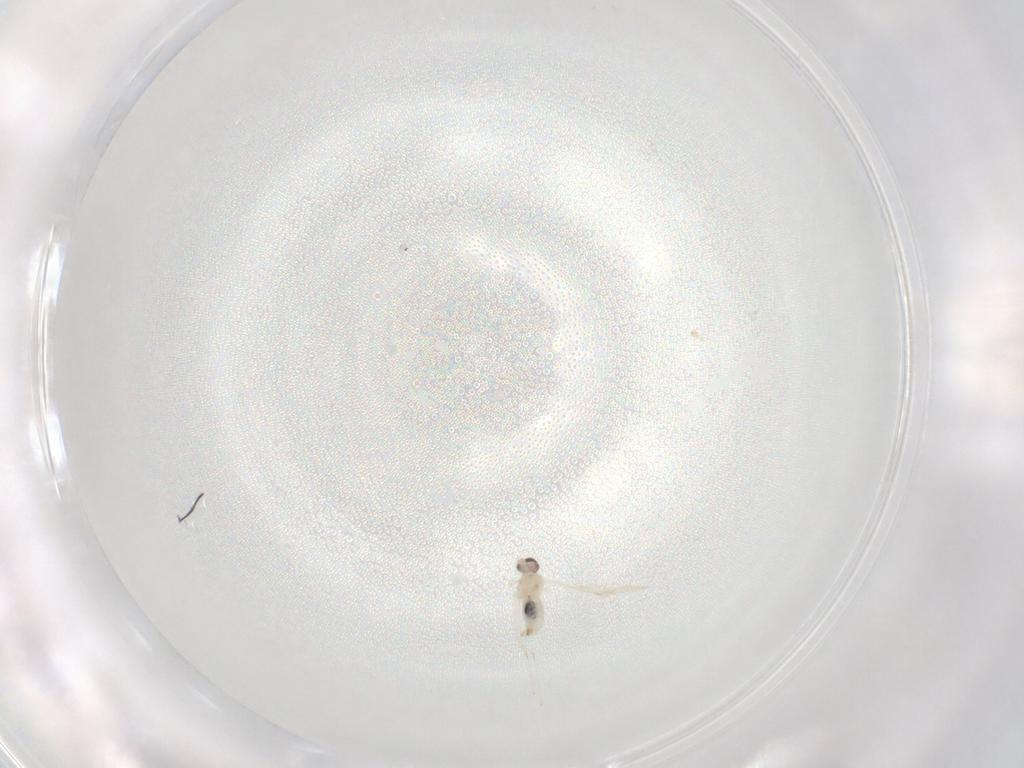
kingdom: Animalia
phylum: Arthropoda
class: Insecta
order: Diptera
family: Cecidomyiidae
